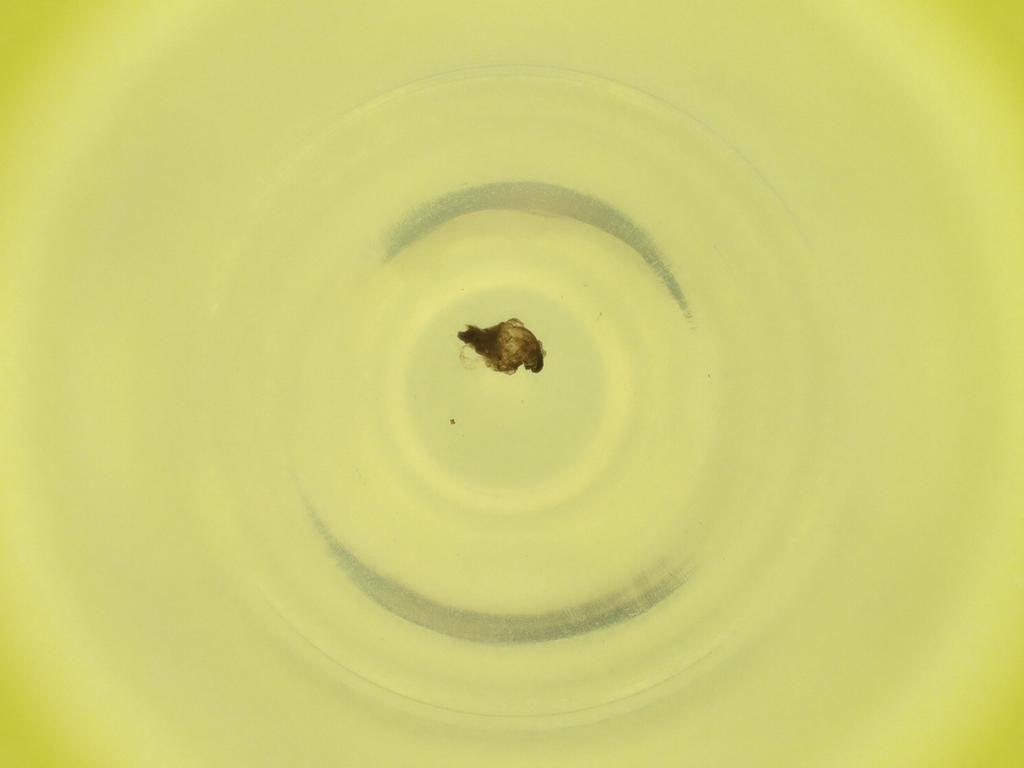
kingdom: Animalia
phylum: Arthropoda
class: Insecta
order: Diptera
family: Cecidomyiidae
